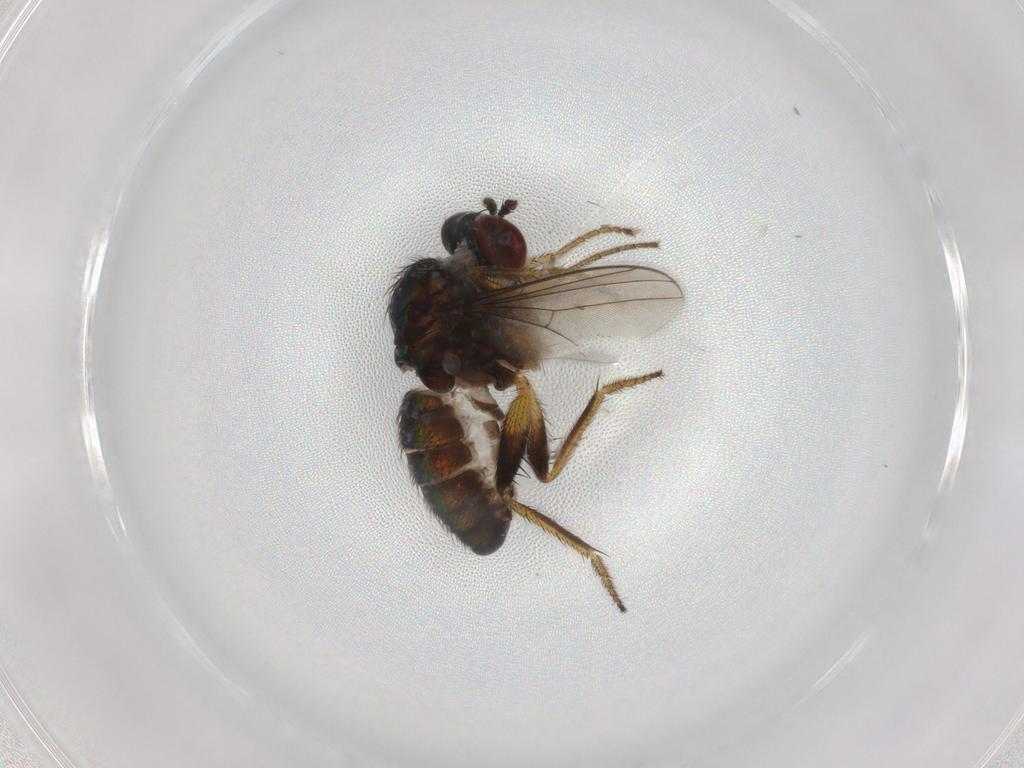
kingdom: Animalia
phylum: Arthropoda
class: Insecta
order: Diptera
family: Chironomidae
